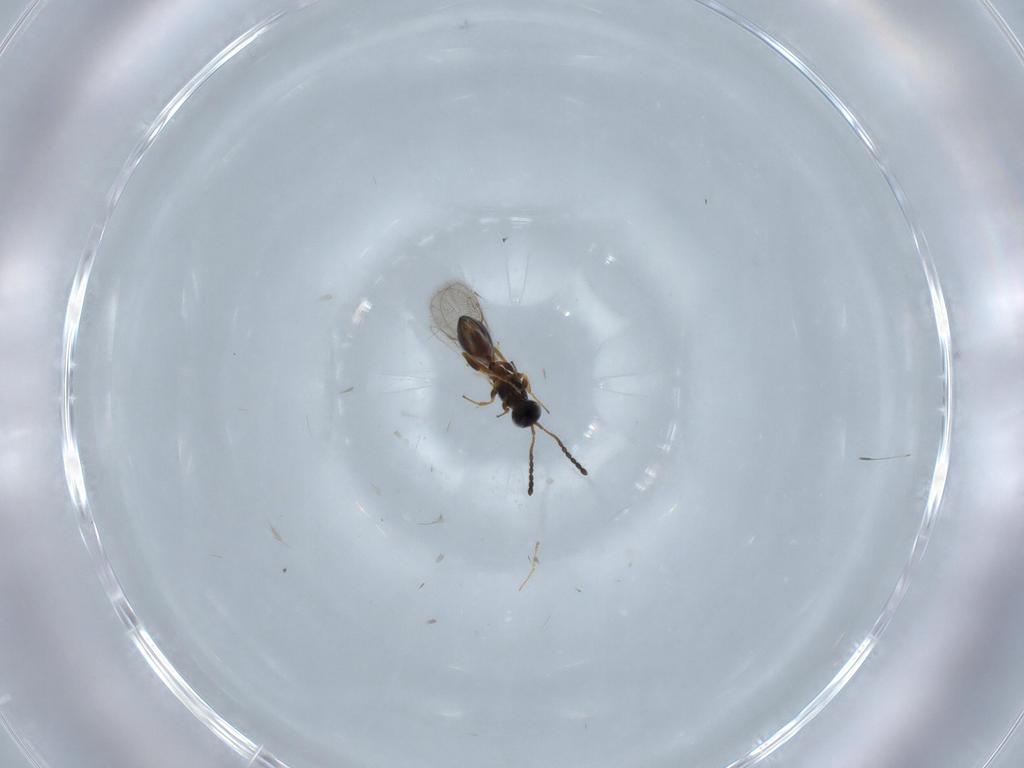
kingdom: Animalia
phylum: Arthropoda
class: Insecta
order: Hymenoptera
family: Figitidae
